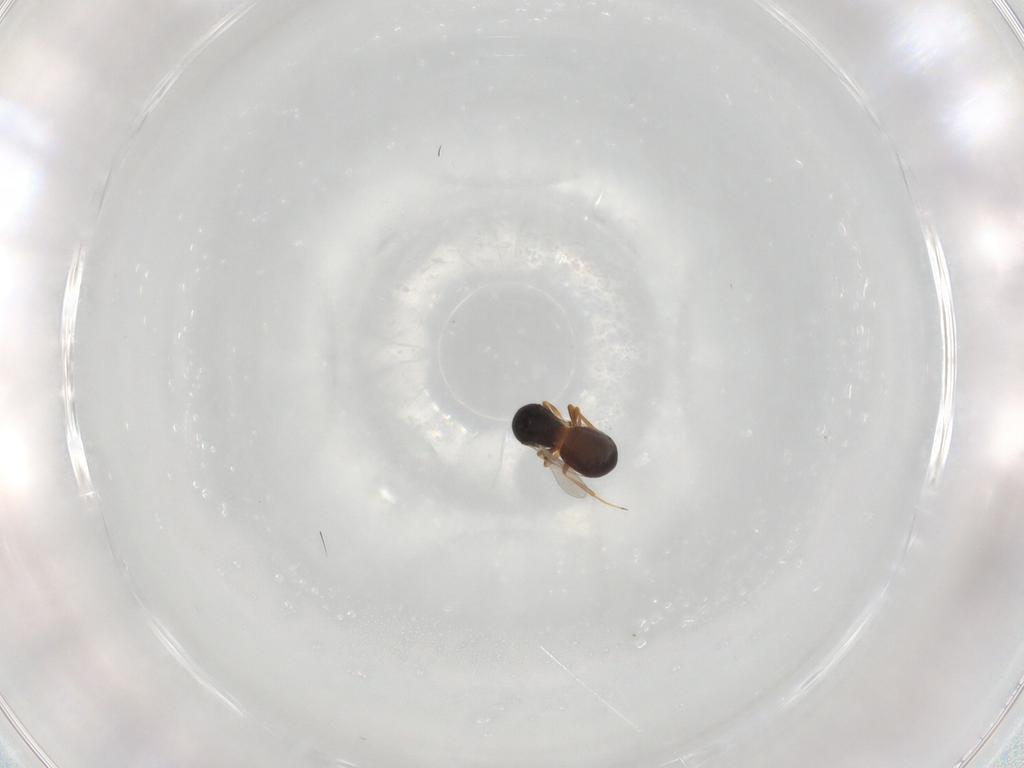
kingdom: Animalia
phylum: Arthropoda
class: Insecta
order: Hymenoptera
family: Scelionidae
